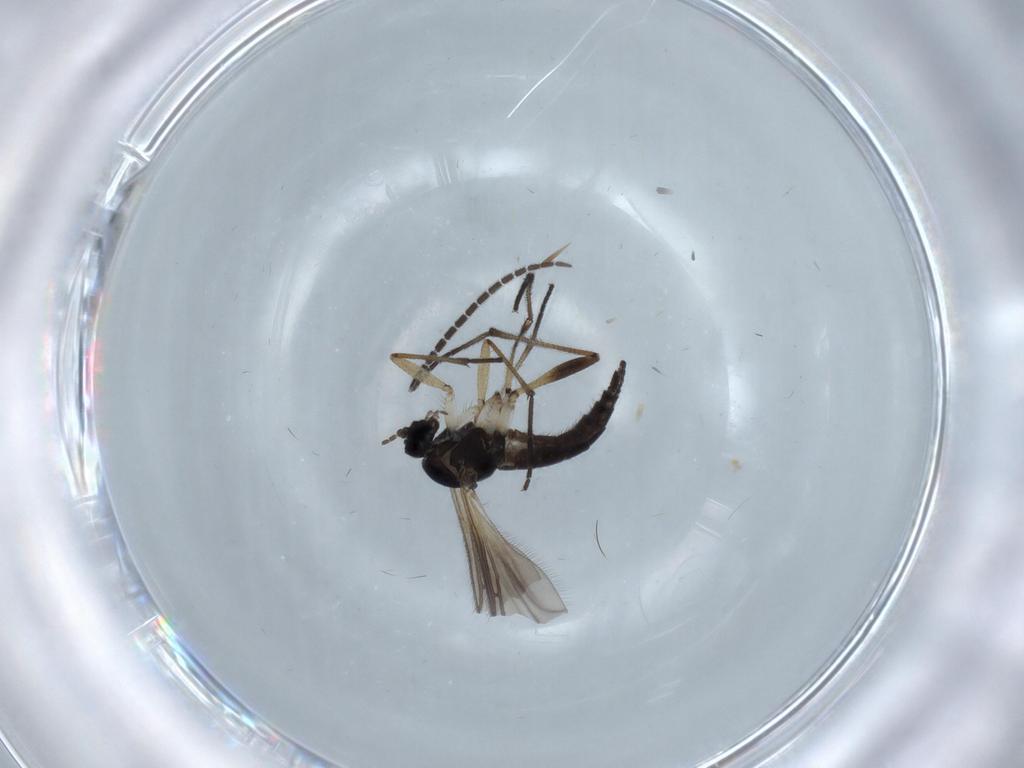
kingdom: Animalia
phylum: Arthropoda
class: Insecta
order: Diptera
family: Sciaridae
